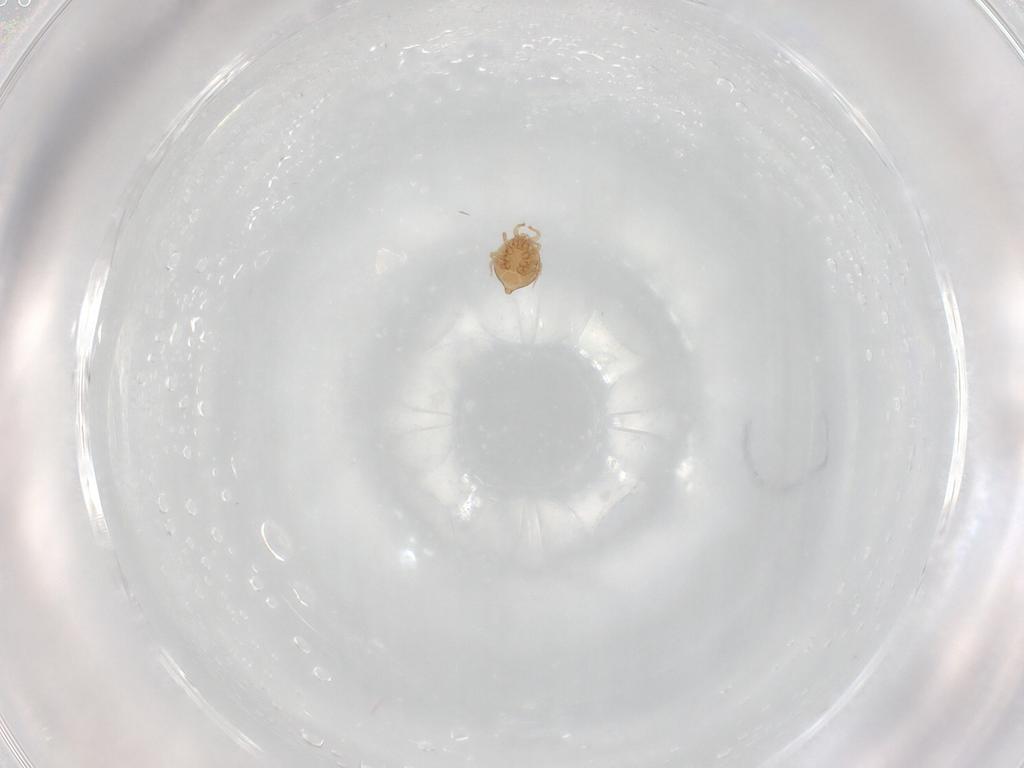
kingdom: Animalia
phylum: Arthropoda
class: Arachnida
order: Mesostigmata
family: Polyaspididae
